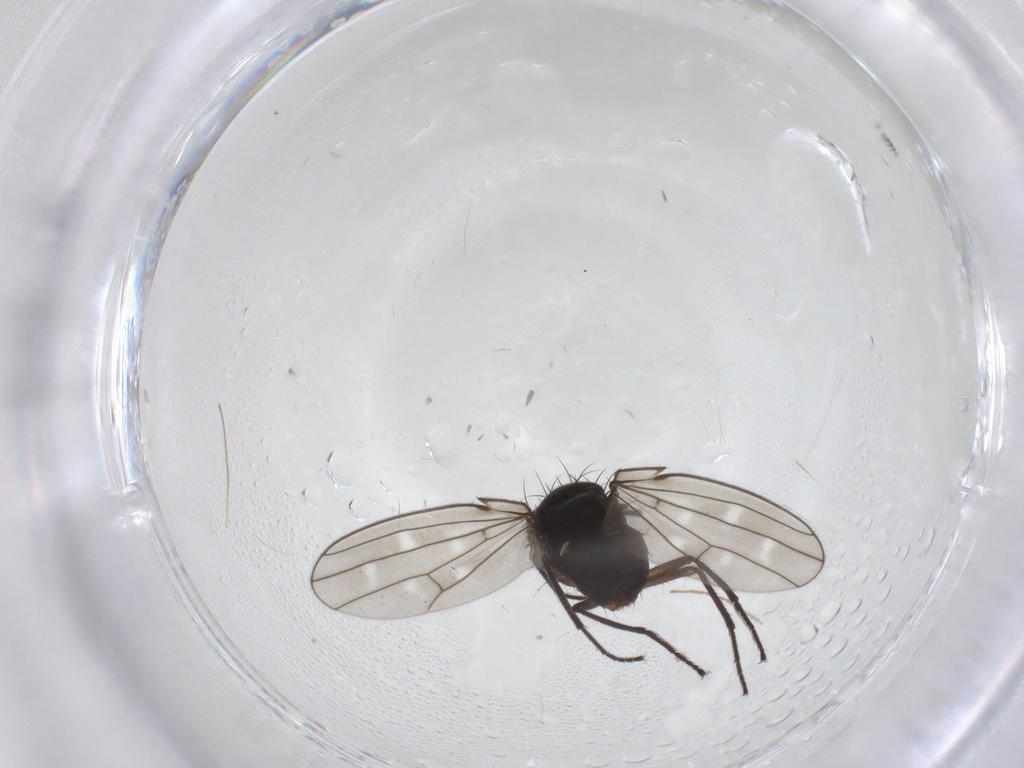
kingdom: Animalia
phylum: Arthropoda
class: Insecta
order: Diptera
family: Ephydridae
